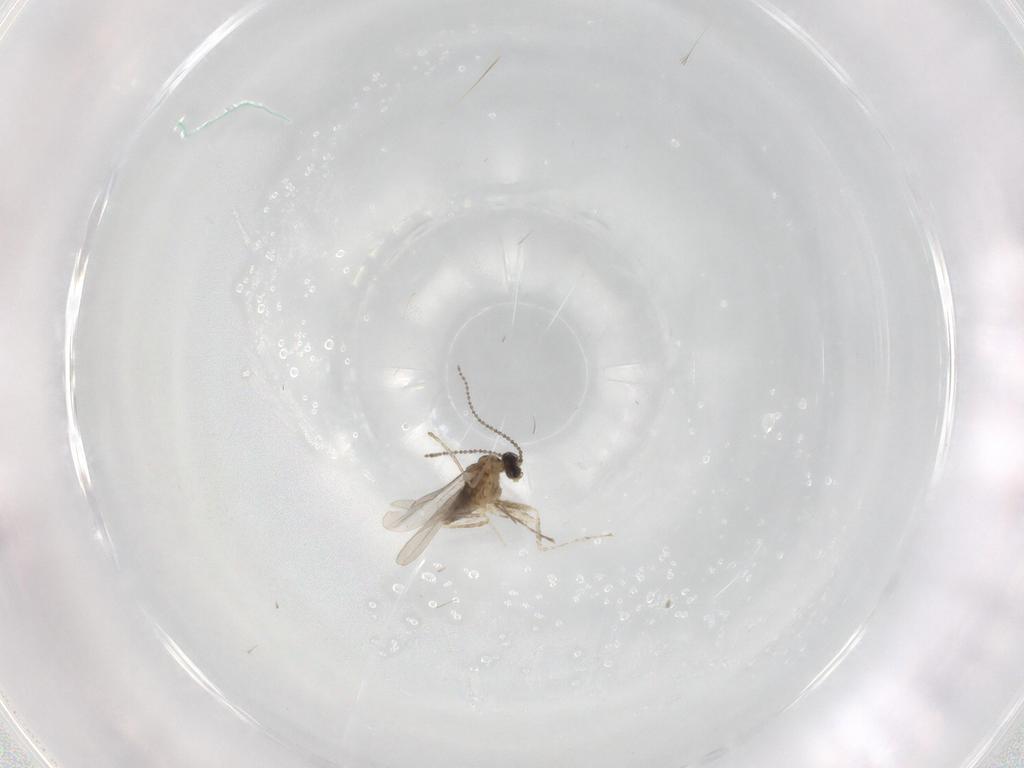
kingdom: Animalia
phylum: Arthropoda
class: Insecta
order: Diptera
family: Cecidomyiidae
